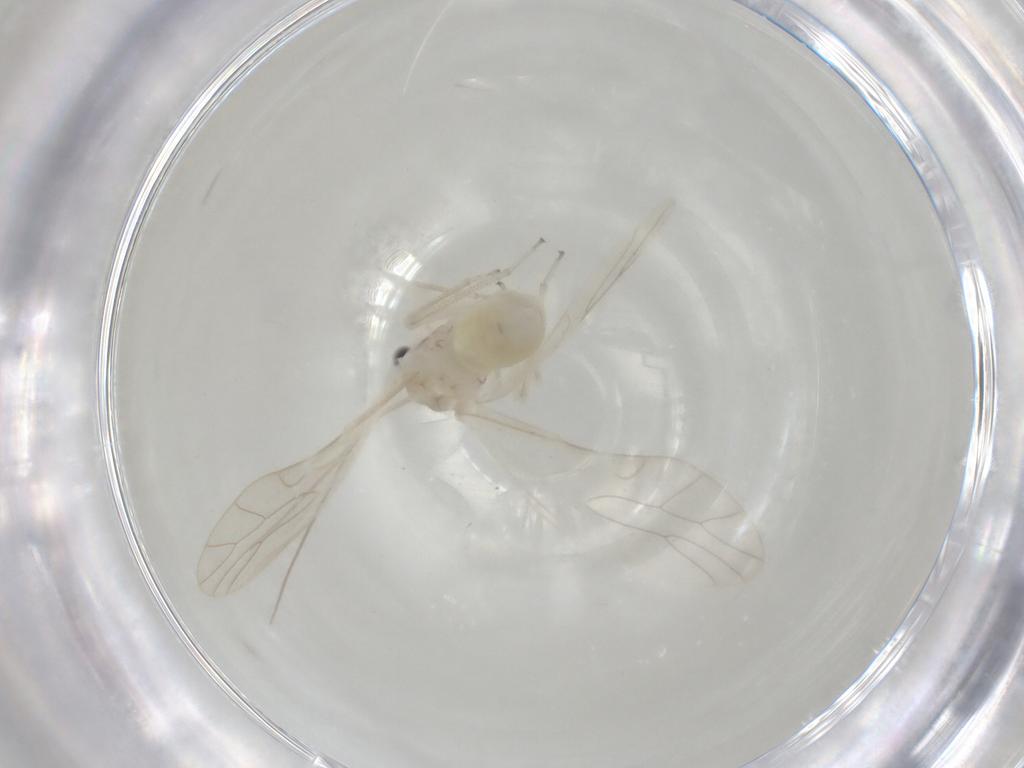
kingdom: Animalia
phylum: Arthropoda
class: Insecta
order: Psocodea
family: Caeciliusidae
